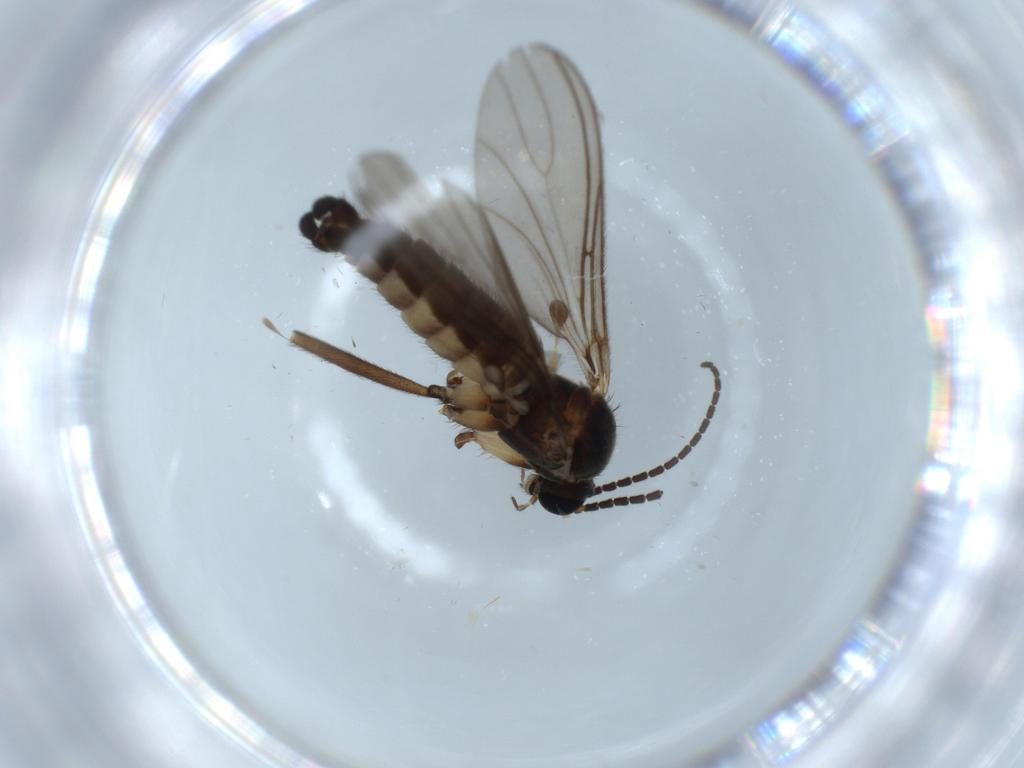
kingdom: Animalia
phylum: Arthropoda
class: Insecta
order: Diptera
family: Sciaridae
